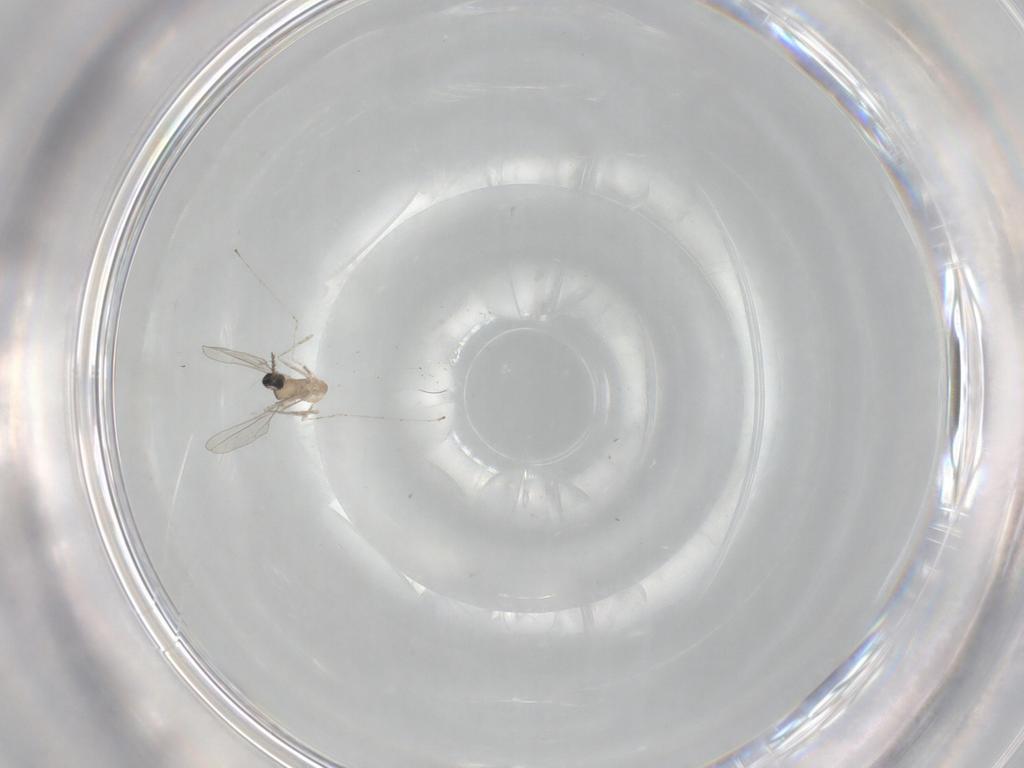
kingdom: Animalia
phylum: Arthropoda
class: Insecta
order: Diptera
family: Cecidomyiidae
